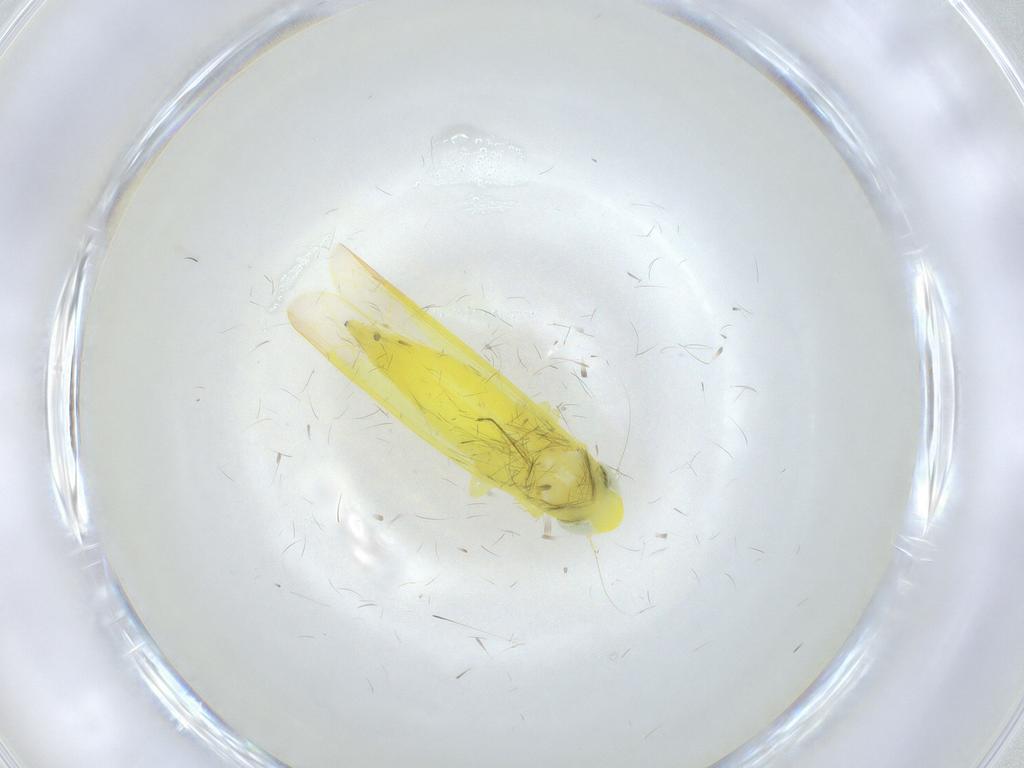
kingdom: Animalia
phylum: Arthropoda
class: Insecta
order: Hemiptera
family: Cicadellidae
